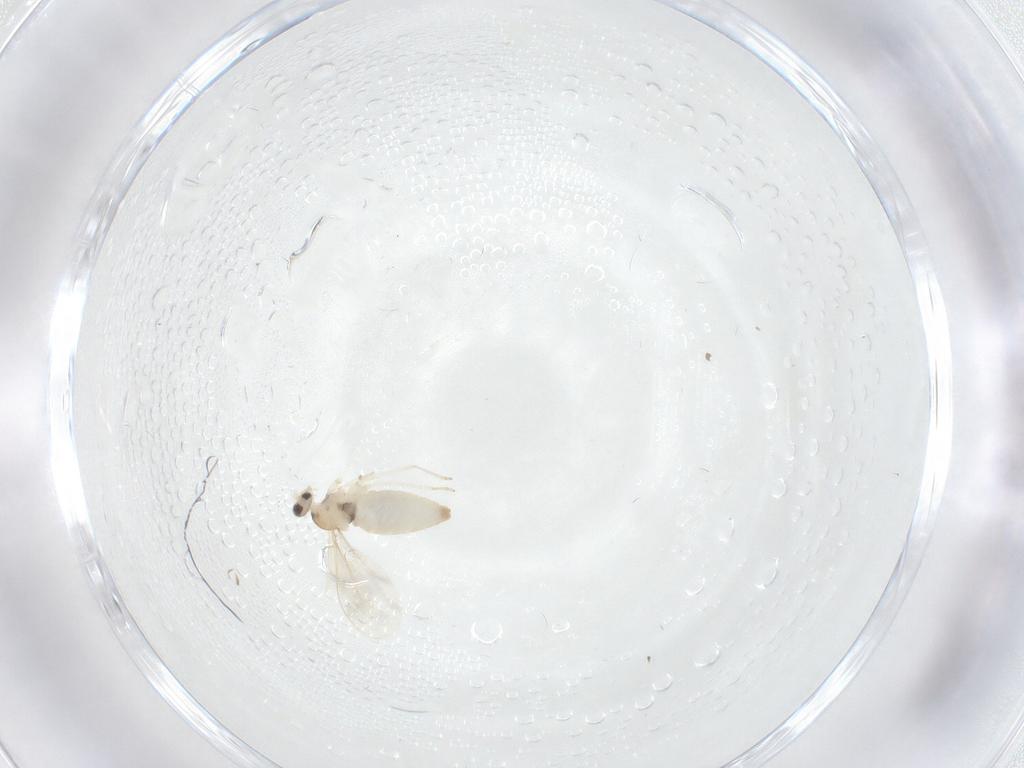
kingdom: Animalia
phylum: Arthropoda
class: Insecta
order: Diptera
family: Cecidomyiidae
